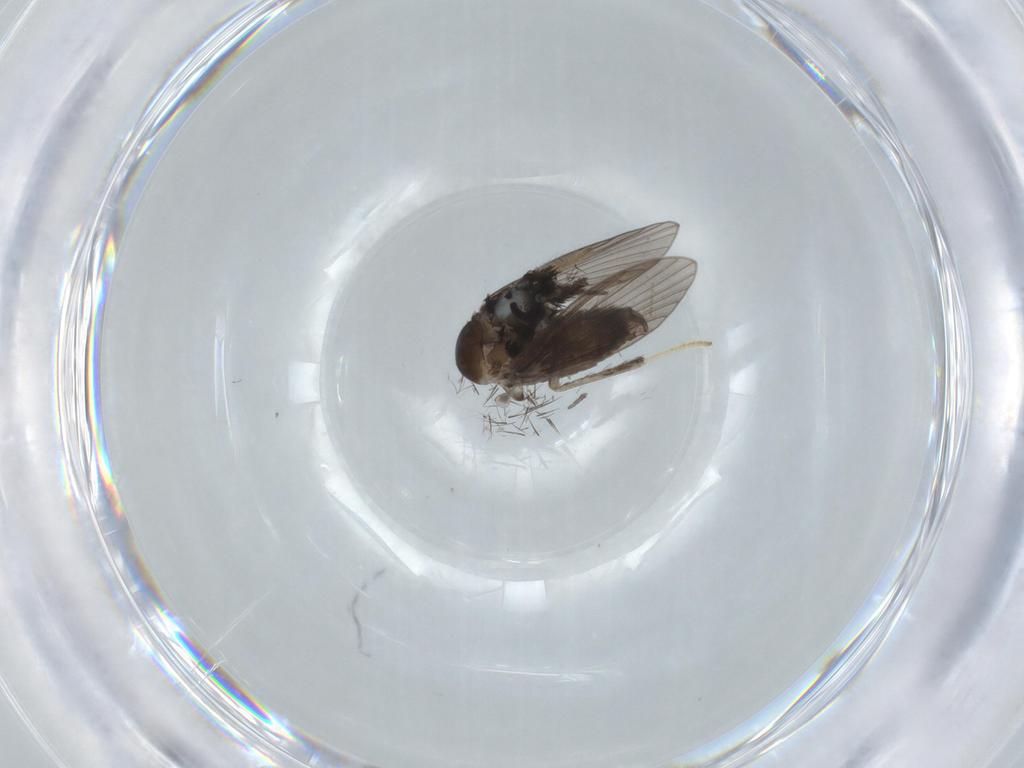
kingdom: Animalia
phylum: Arthropoda
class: Insecta
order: Diptera
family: Psychodidae
